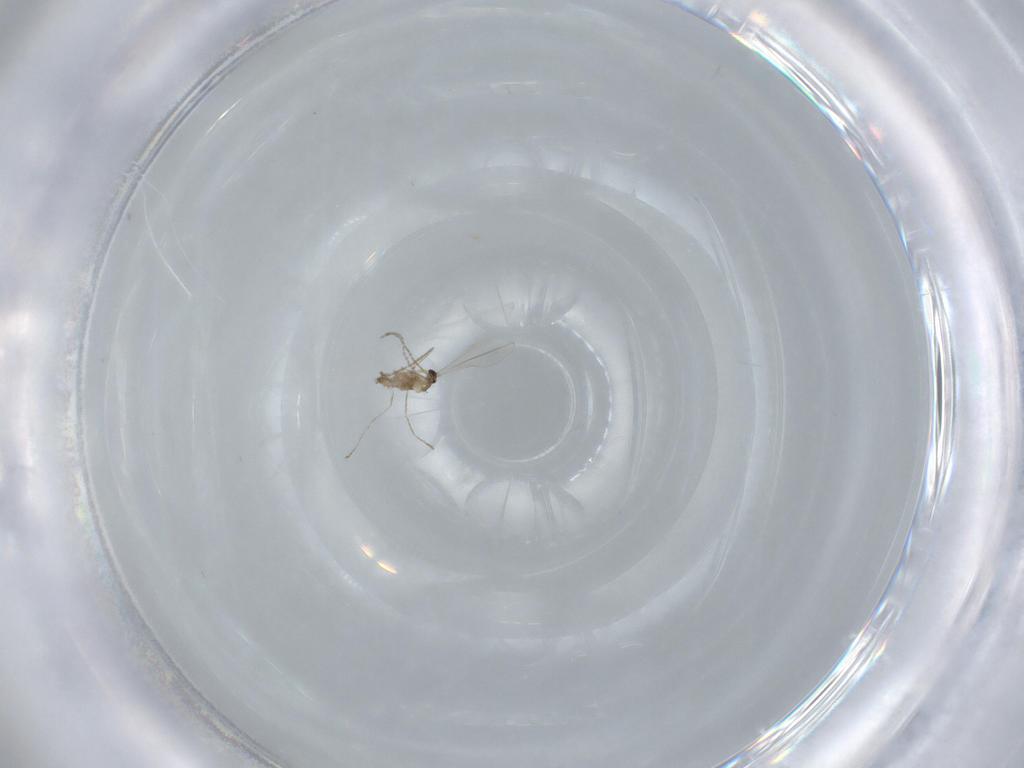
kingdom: Animalia
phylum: Arthropoda
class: Insecta
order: Diptera
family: Cecidomyiidae
